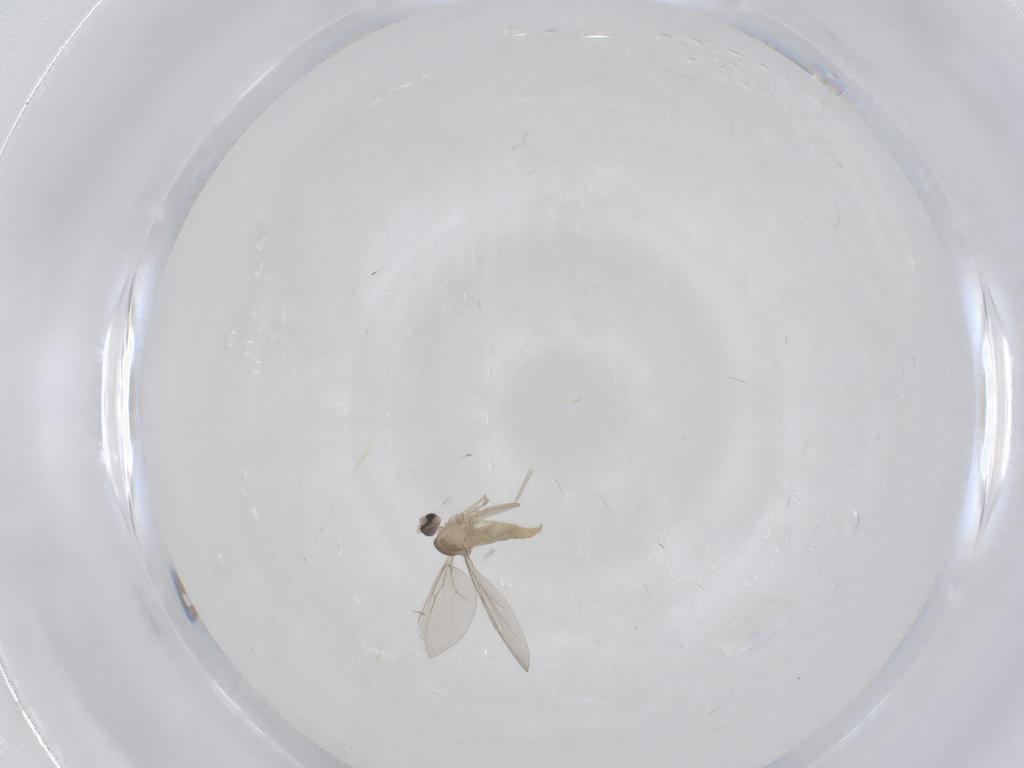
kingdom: Animalia
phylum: Arthropoda
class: Insecta
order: Diptera
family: Cecidomyiidae
